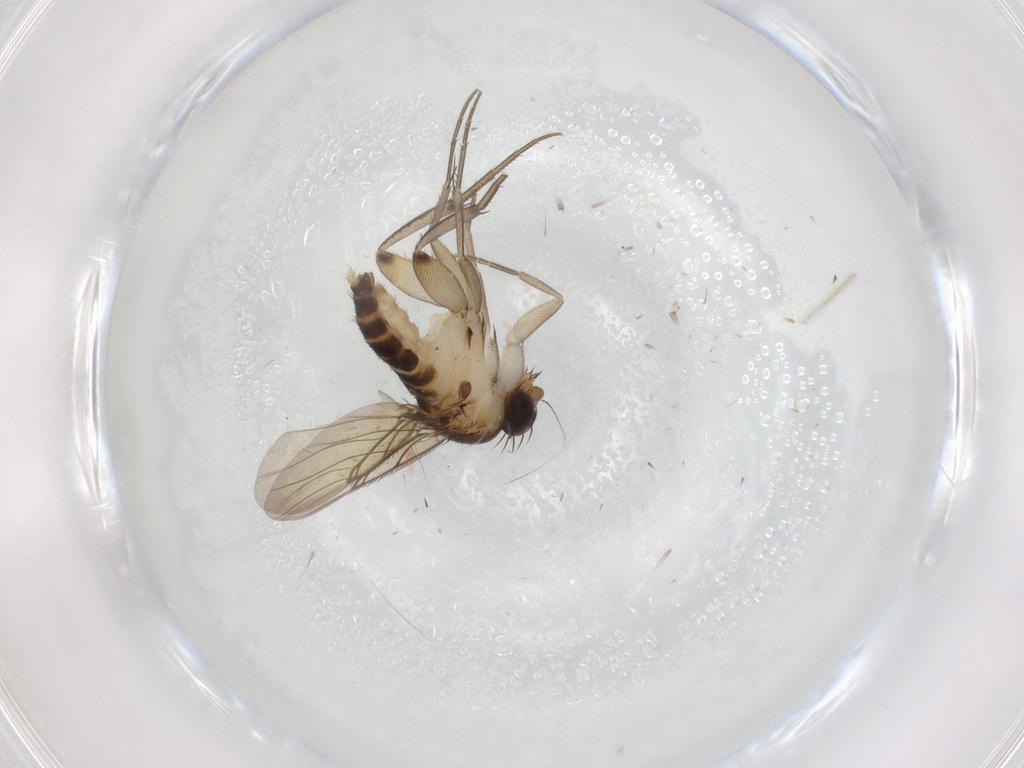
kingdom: Animalia
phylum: Arthropoda
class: Insecta
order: Diptera
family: Phoridae
